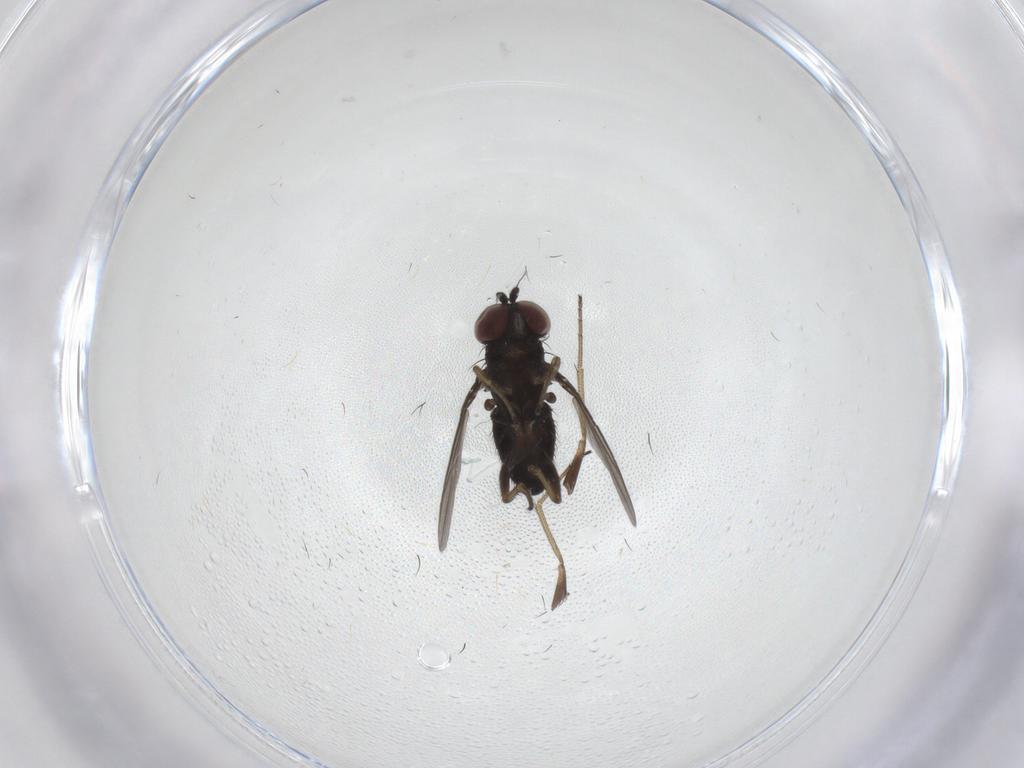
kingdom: Animalia
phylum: Arthropoda
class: Insecta
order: Diptera
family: Dolichopodidae
